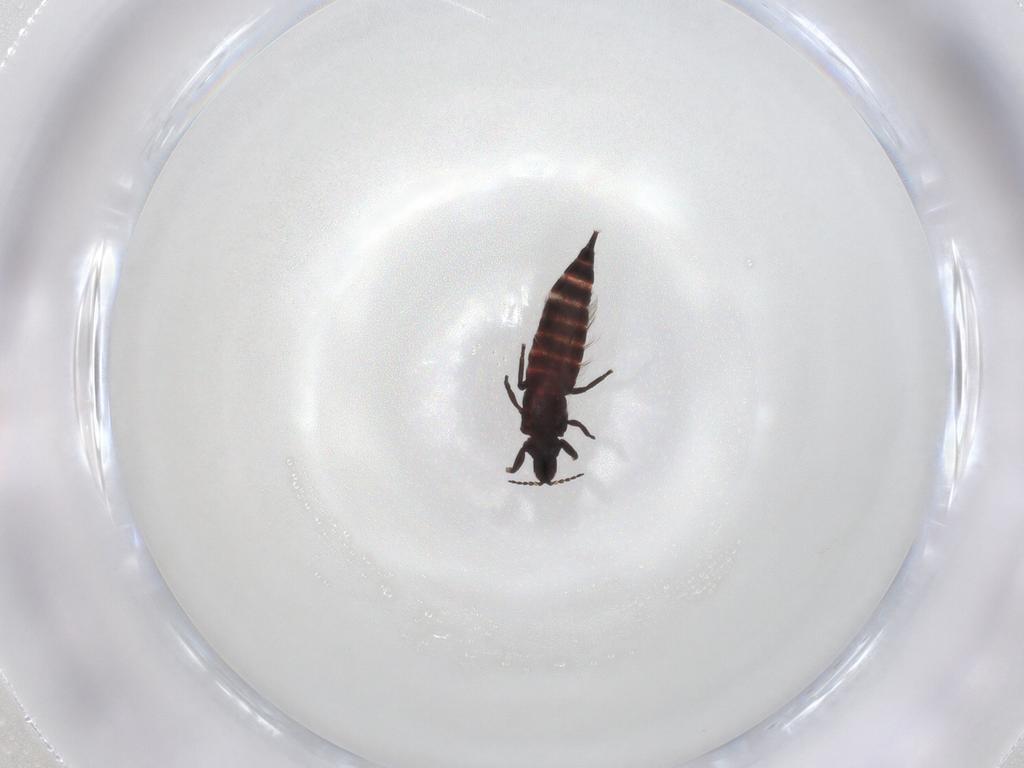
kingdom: Animalia
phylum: Arthropoda
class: Insecta
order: Thysanoptera
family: Phlaeothripidae
